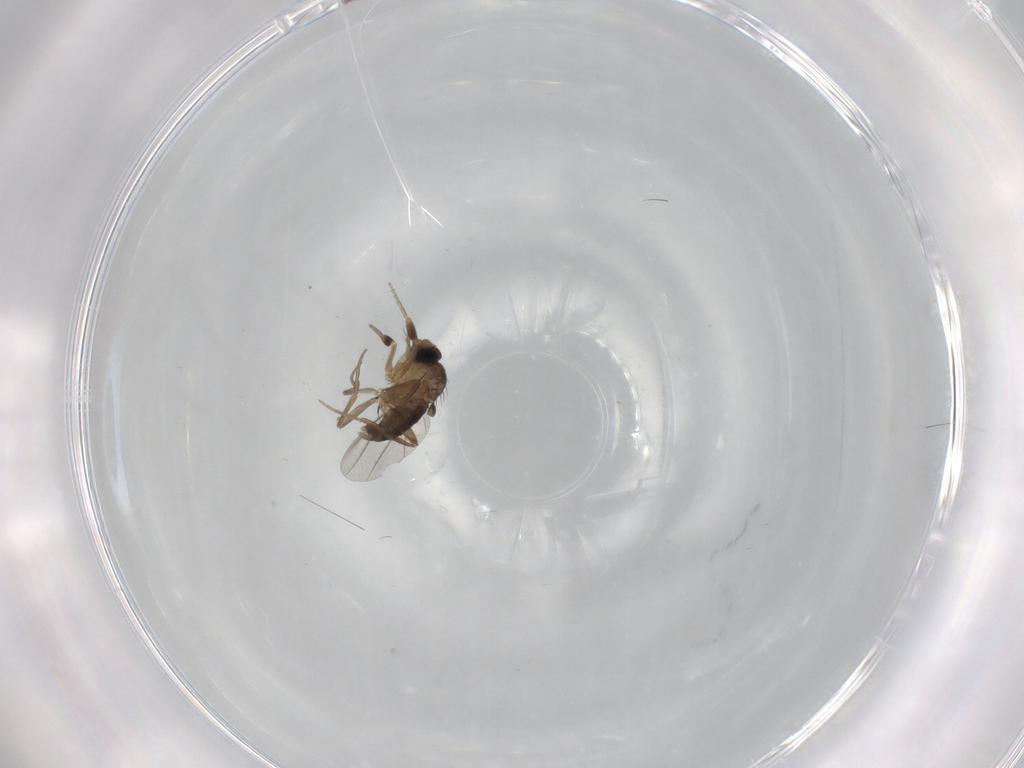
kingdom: Animalia
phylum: Arthropoda
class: Insecta
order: Diptera
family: Phoridae
